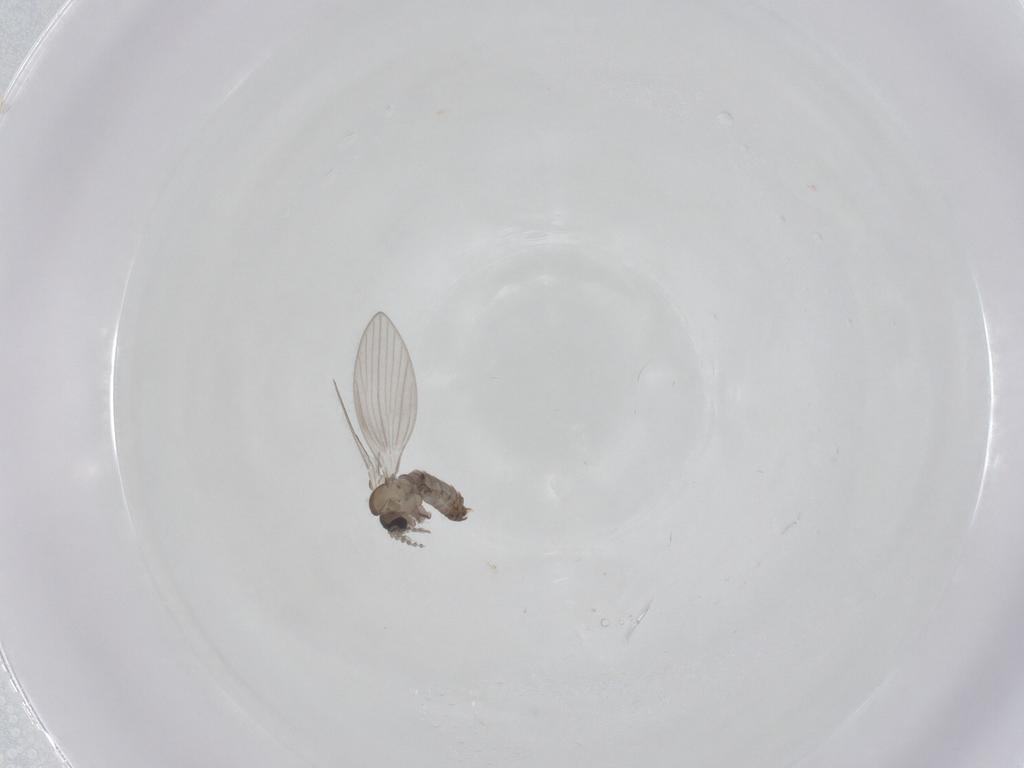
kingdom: Animalia
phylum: Arthropoda
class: Insecta
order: Diptera
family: Psychodidae
